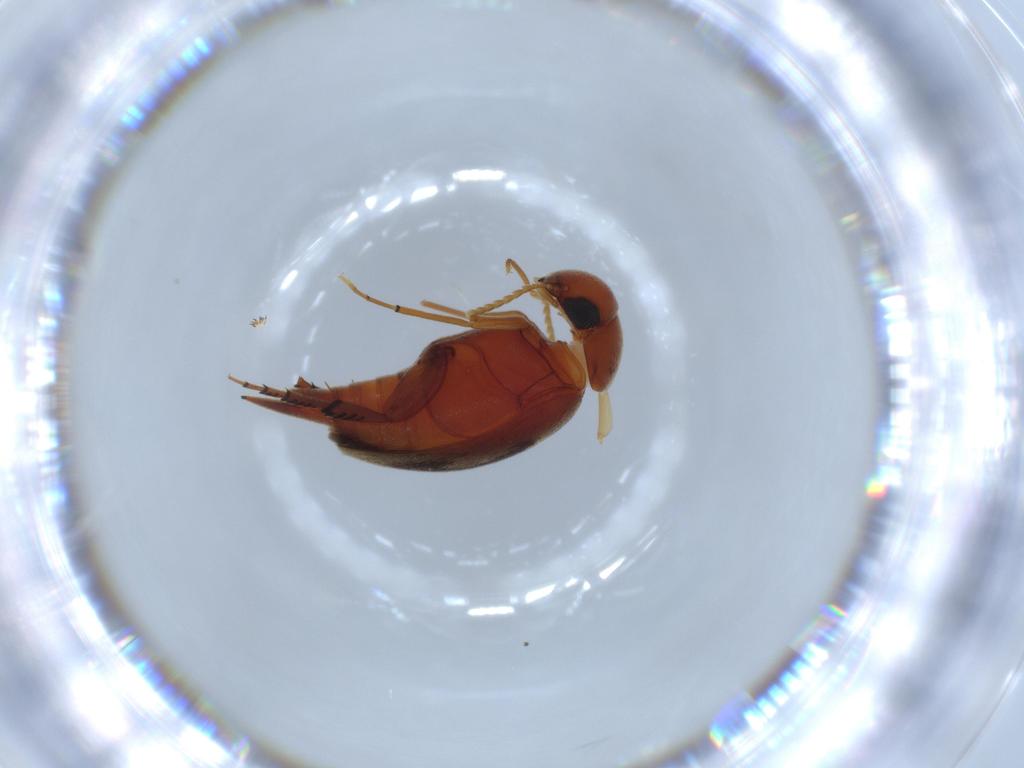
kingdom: Animalia
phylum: Arthropoda
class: Insecta
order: Coleoptera
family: Ptinidae
